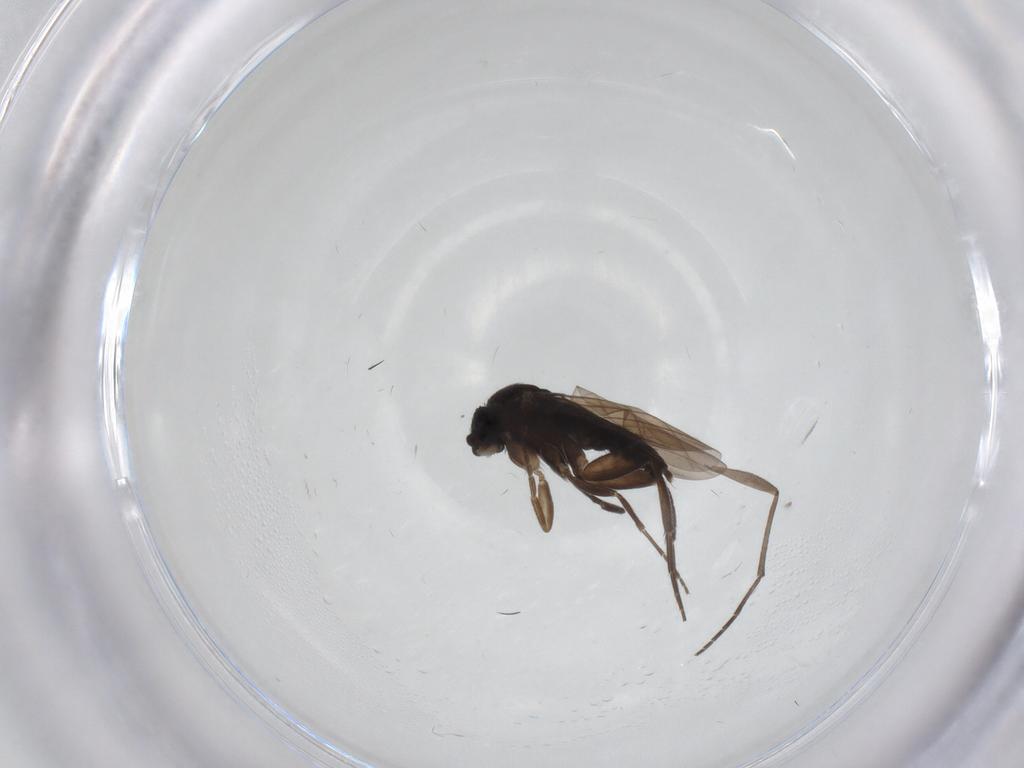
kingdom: Animalia
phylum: Arthropoda
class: Insecta
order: Diptera
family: Phoridae
